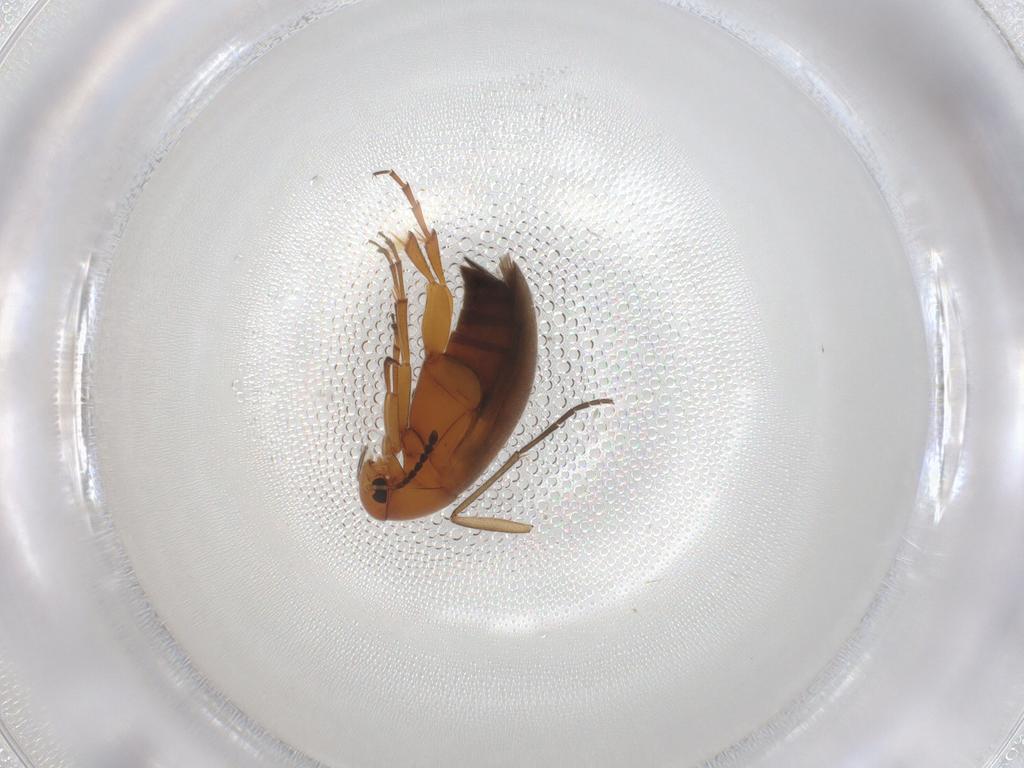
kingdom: Animalia
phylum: Arthropoda
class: Insecta
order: Coleoptera
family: Scraptiidae
